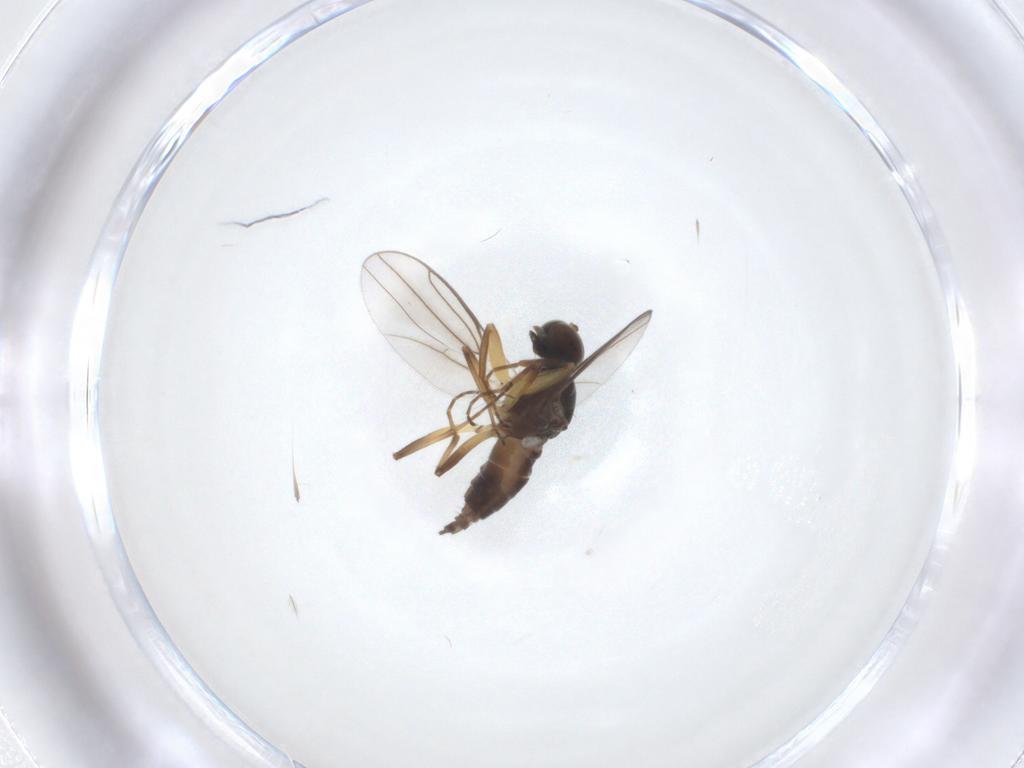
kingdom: Animalia
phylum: Arthropoda
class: Insecta
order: Diptera
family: Hybotidae
